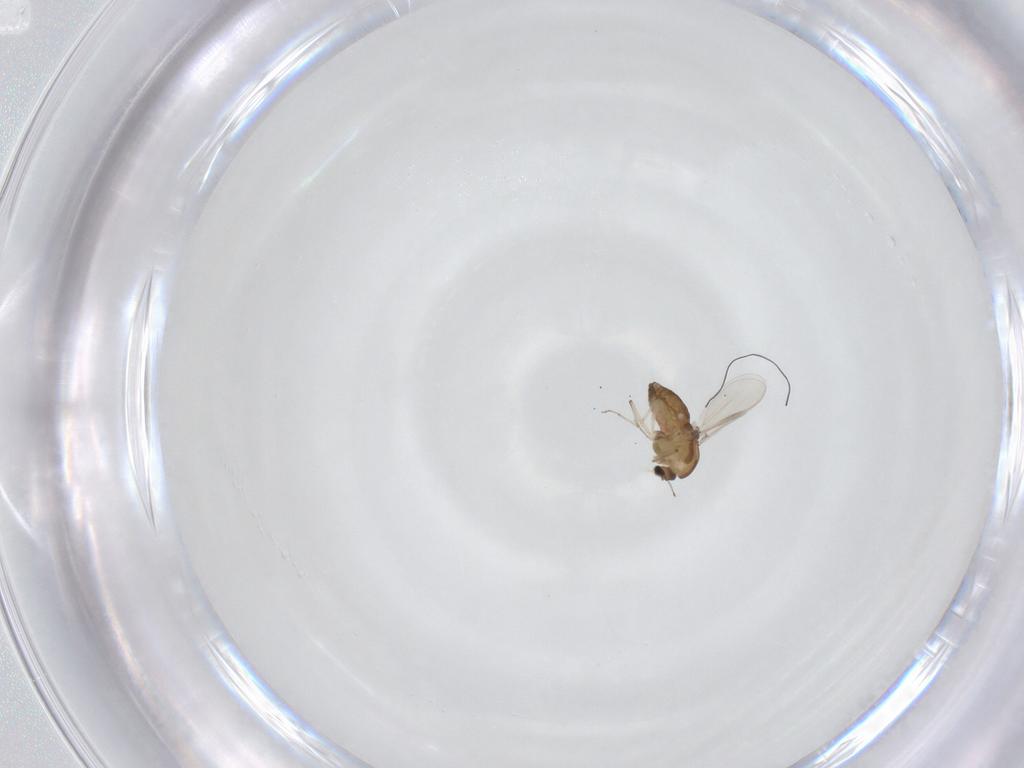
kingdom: Animalia
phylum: Arthropoda
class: Insecta
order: Diptera
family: Chironomidae
